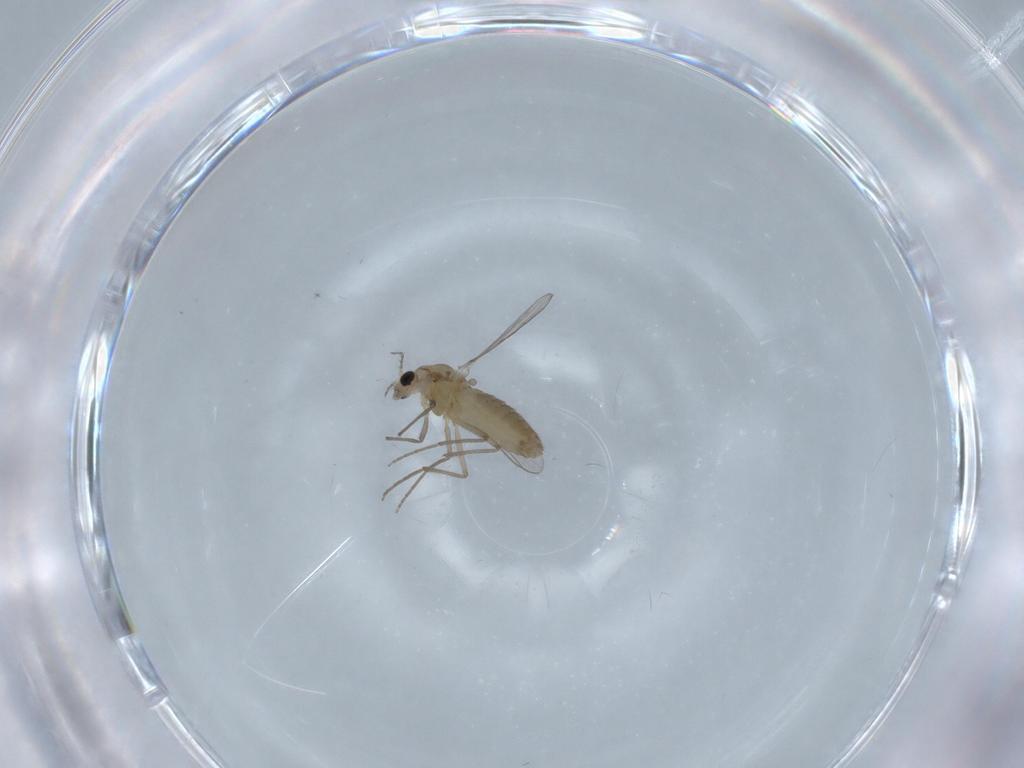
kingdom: Animalia
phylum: Arthropoda
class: Insecta
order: Diptera
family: Chironomidae
